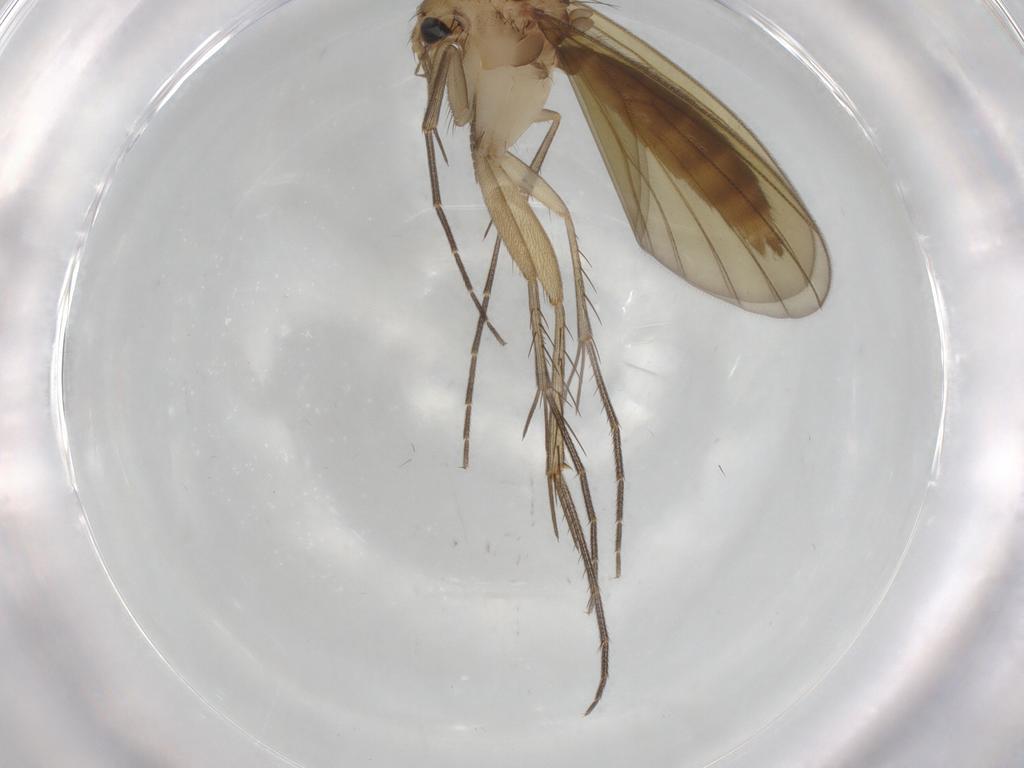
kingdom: Animalia
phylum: Arthropoda
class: Insecta
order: Diptera
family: Mycetophilidae
